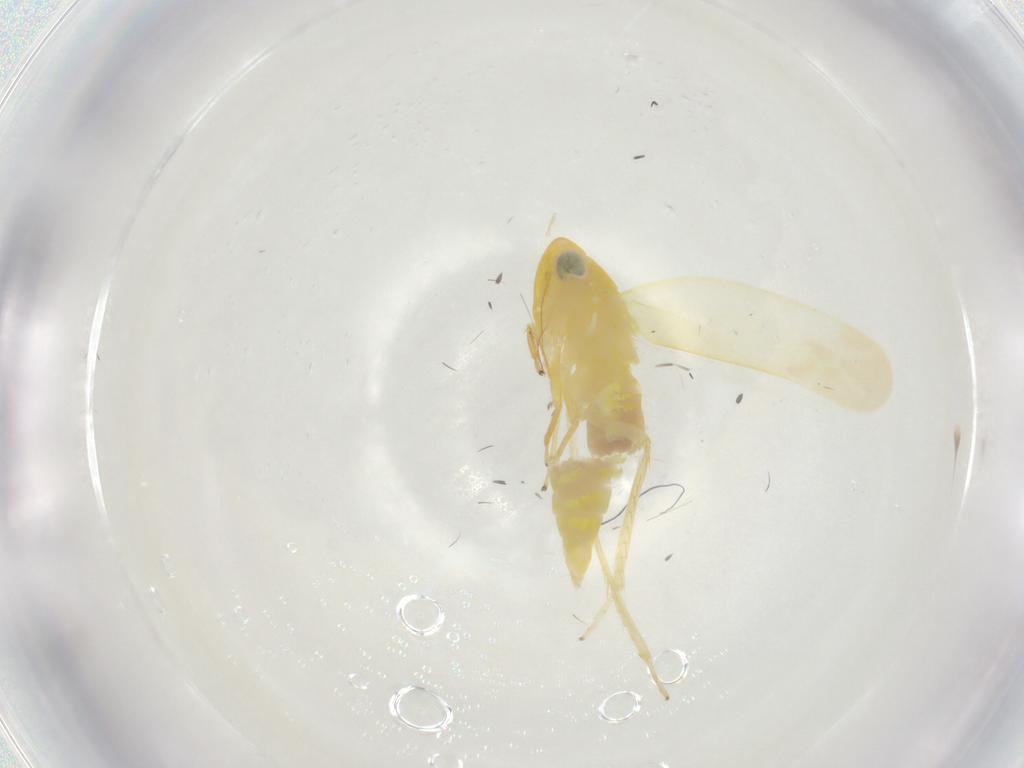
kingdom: Animalia
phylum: Arthropoda
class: Insecta
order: Hemiptera
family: Cicadellidae
